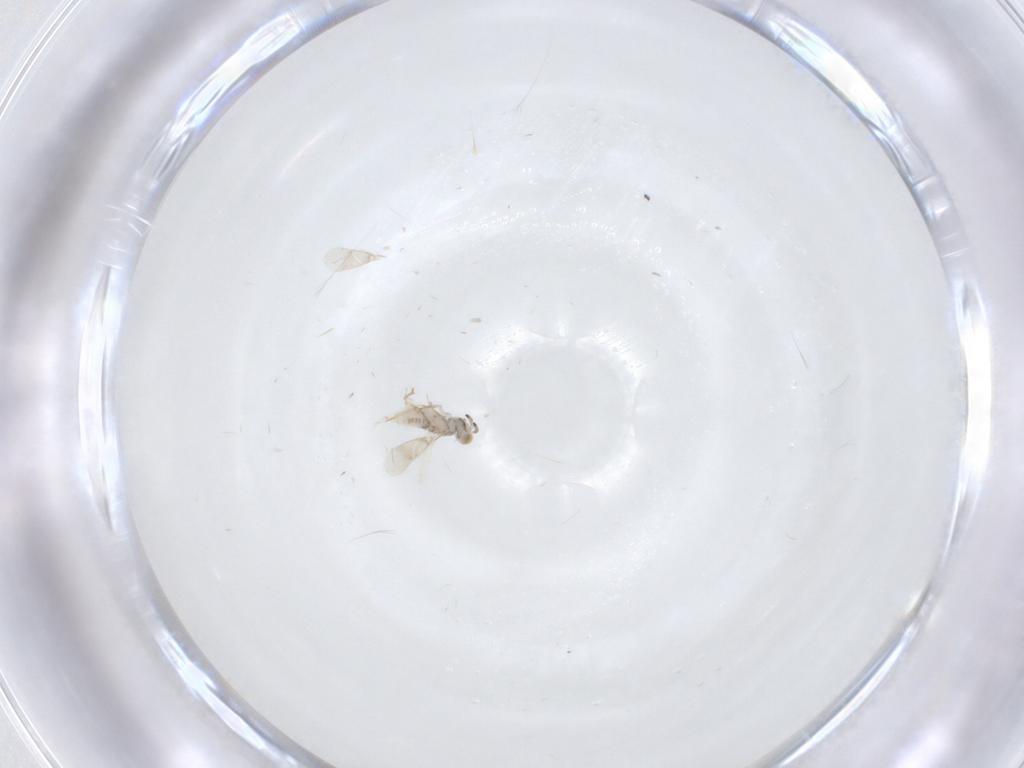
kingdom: Animalia
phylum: Arthropoda
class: Insecta
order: Hymenoptera
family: Aphelinidae
